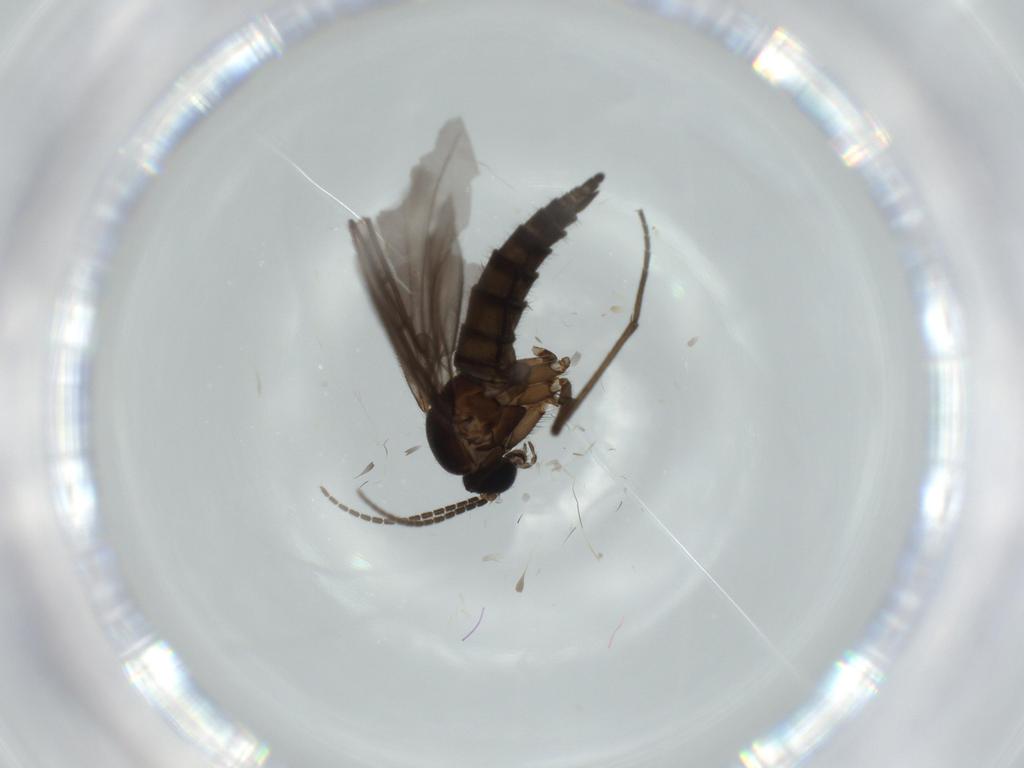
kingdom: Animalia
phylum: Arthropoda
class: Insecta
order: Diptera
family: Sciaridae
